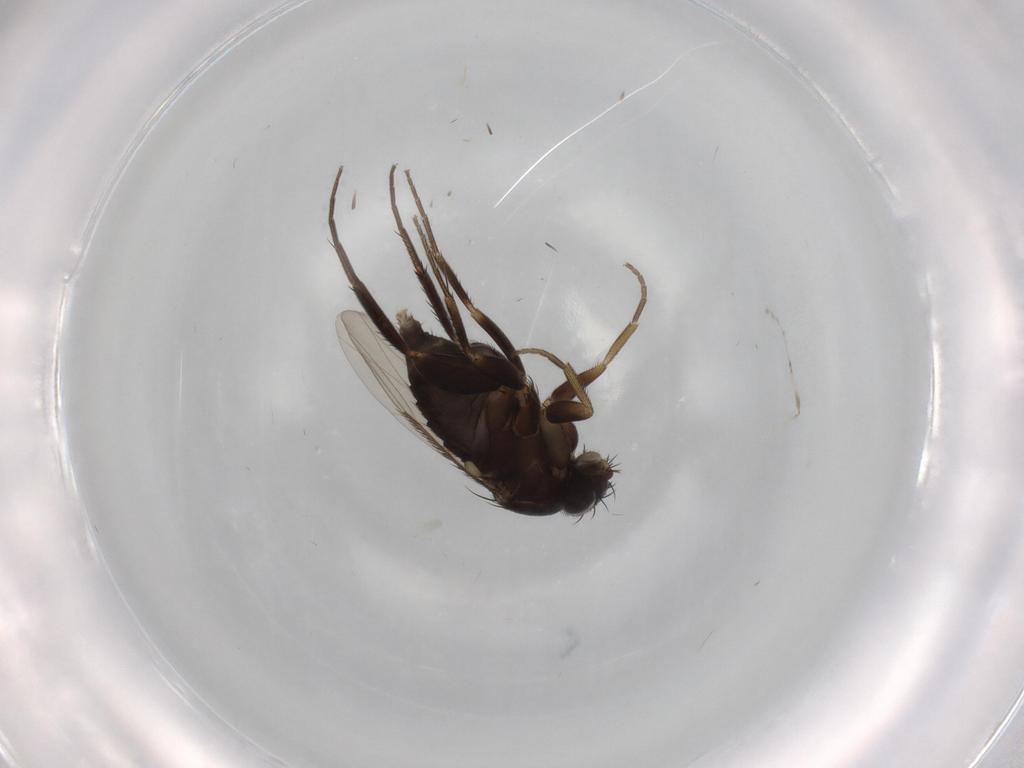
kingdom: Animalia
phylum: Arthropoda
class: Insecta
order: Diptera
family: Phoridae
